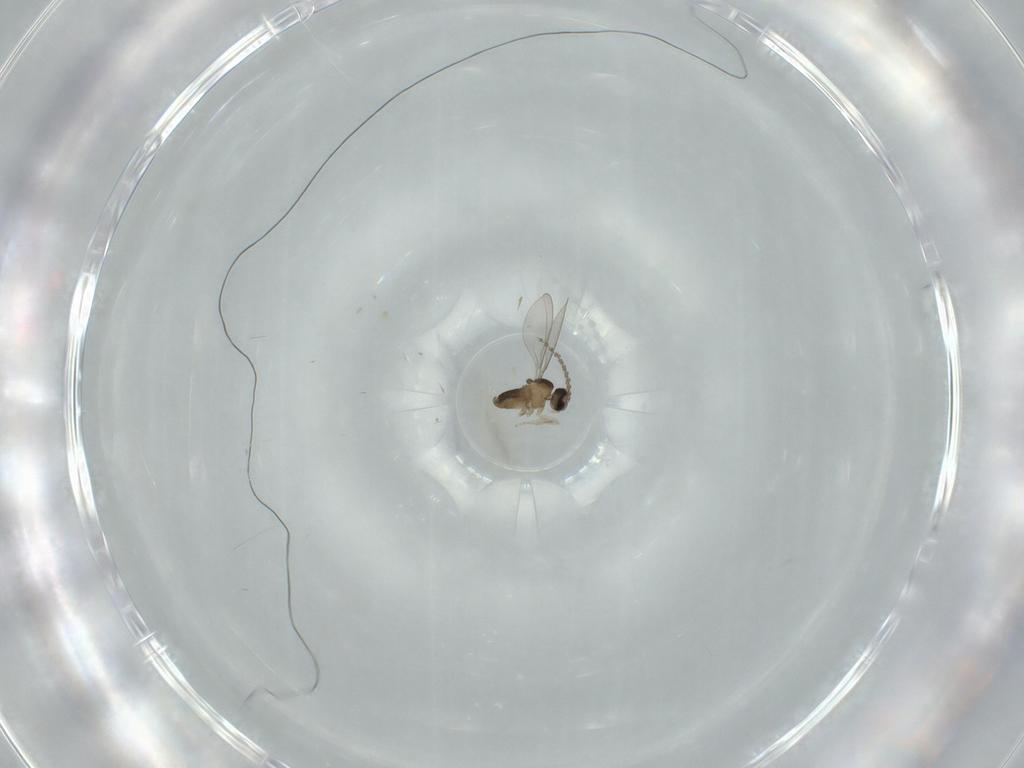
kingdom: Animalia
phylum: Arthropoda
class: Insecta
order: Diptera
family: Cecidomyiidae
